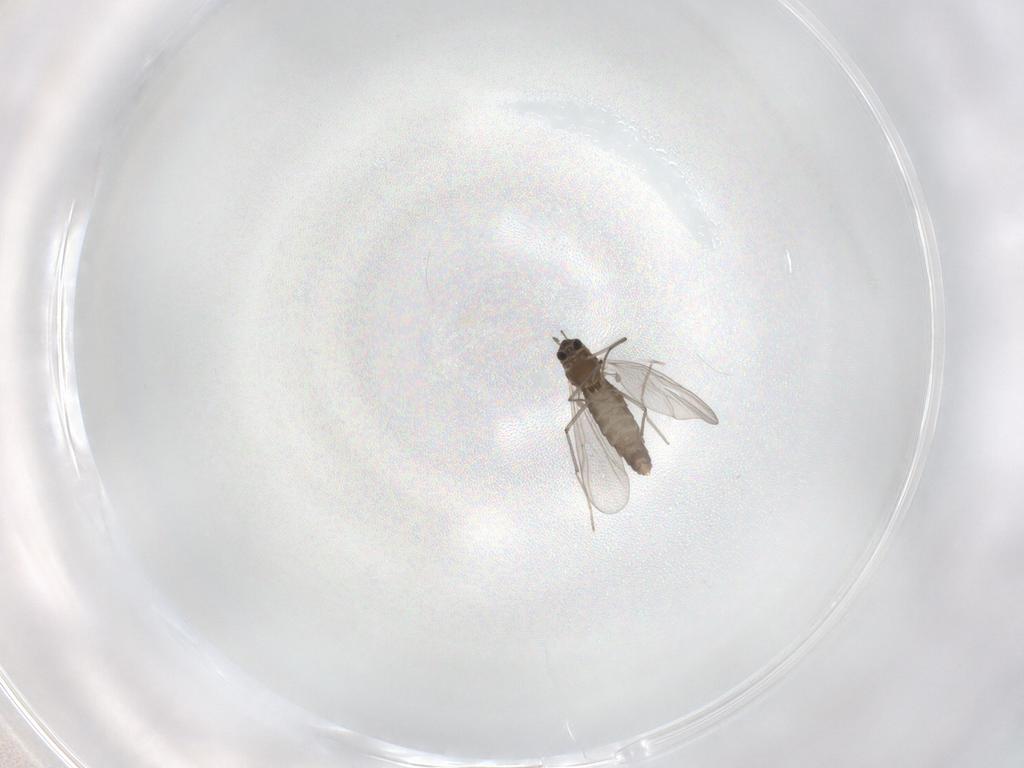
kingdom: Animalia
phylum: Arthropoda
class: Insecta
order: Diptera
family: Chironomidae
